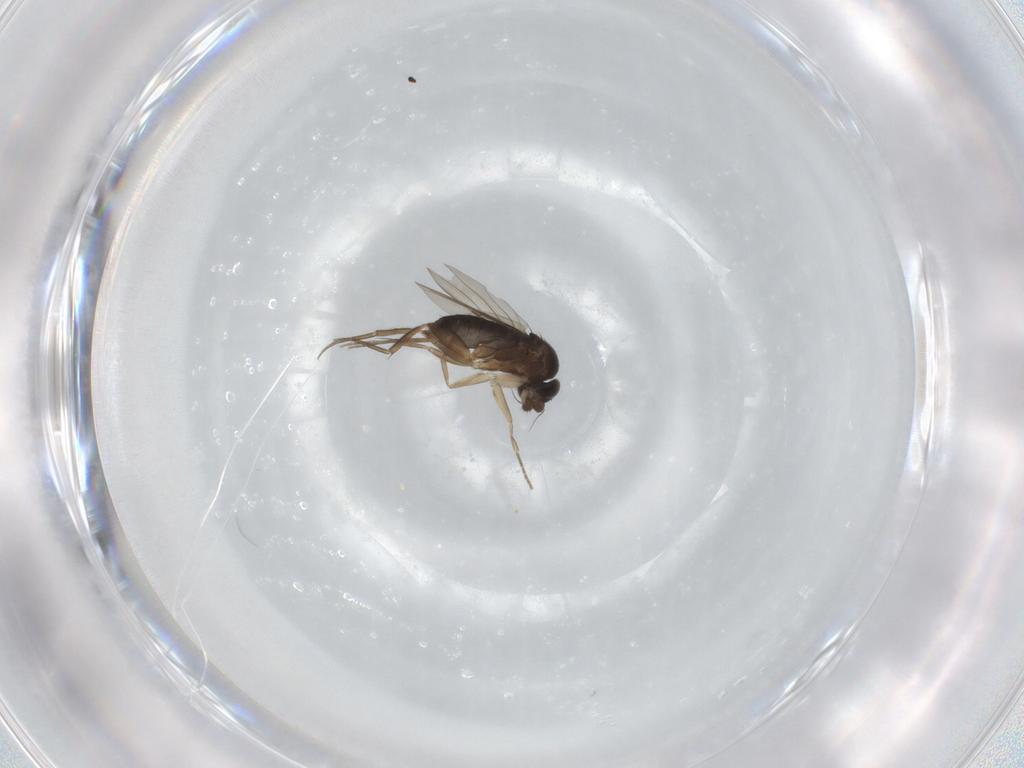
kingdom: Animalia
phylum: Arthropoda
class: Insecta
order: Diptera
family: Phoridae
